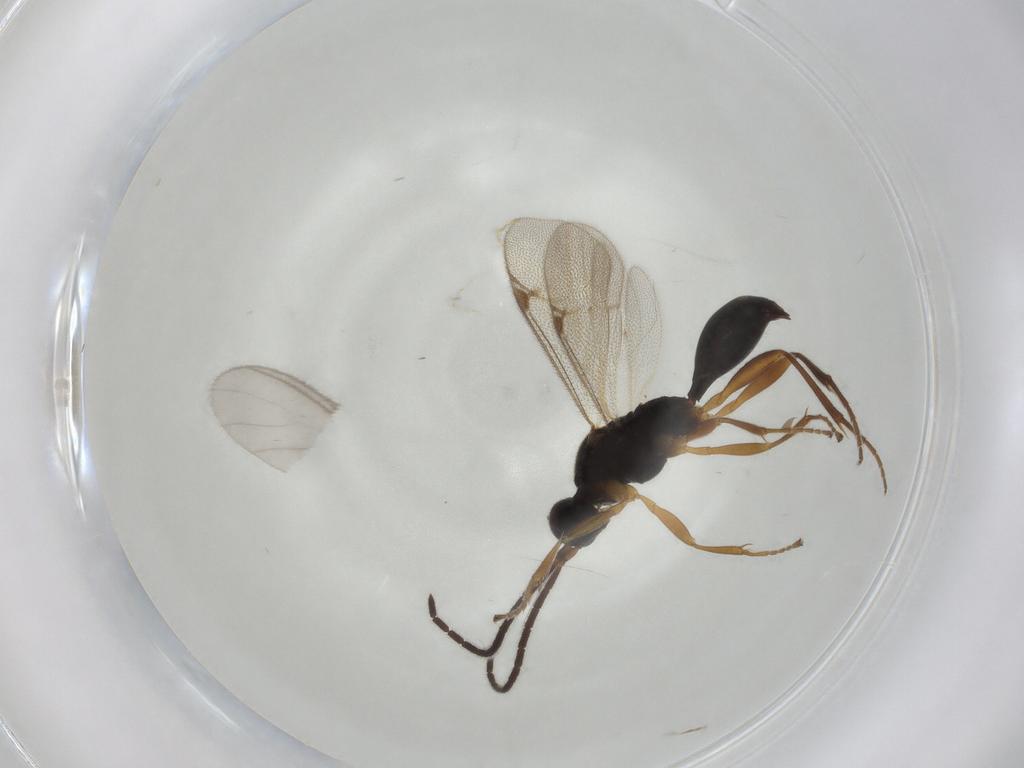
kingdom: Animalia
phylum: Arthropoda
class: Insecta
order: Hymenoptera
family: Proctotrupidae
